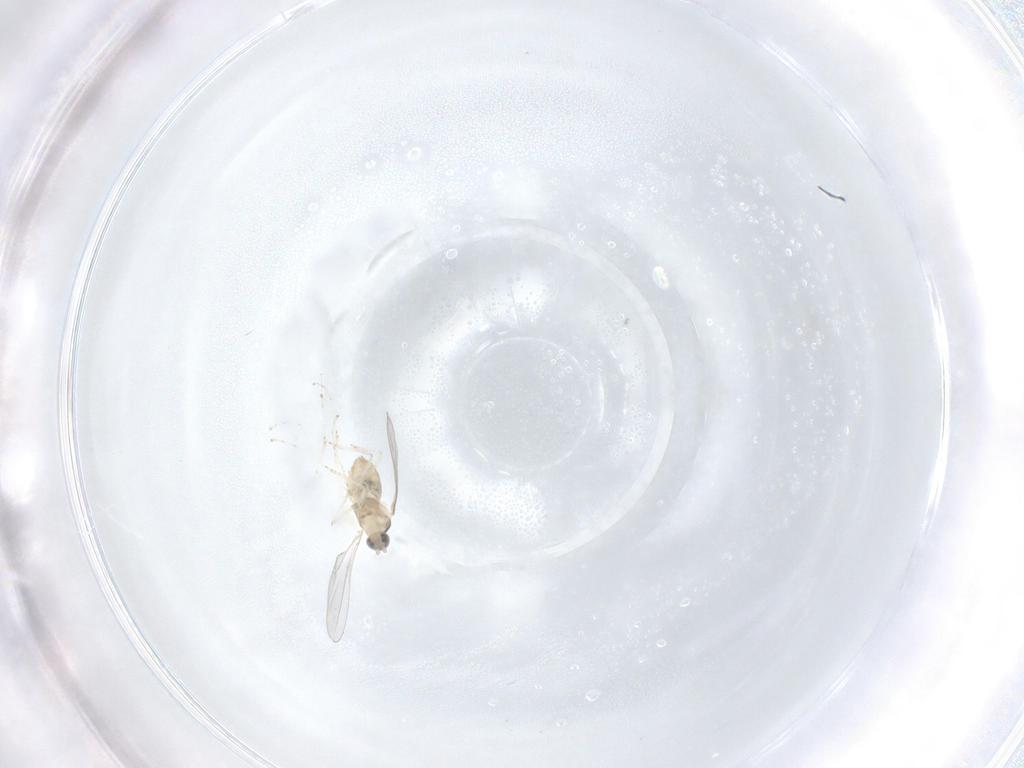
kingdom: Animalia
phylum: Arthropoda
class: Insecta
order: Diptera
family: Cecidomyiidae
